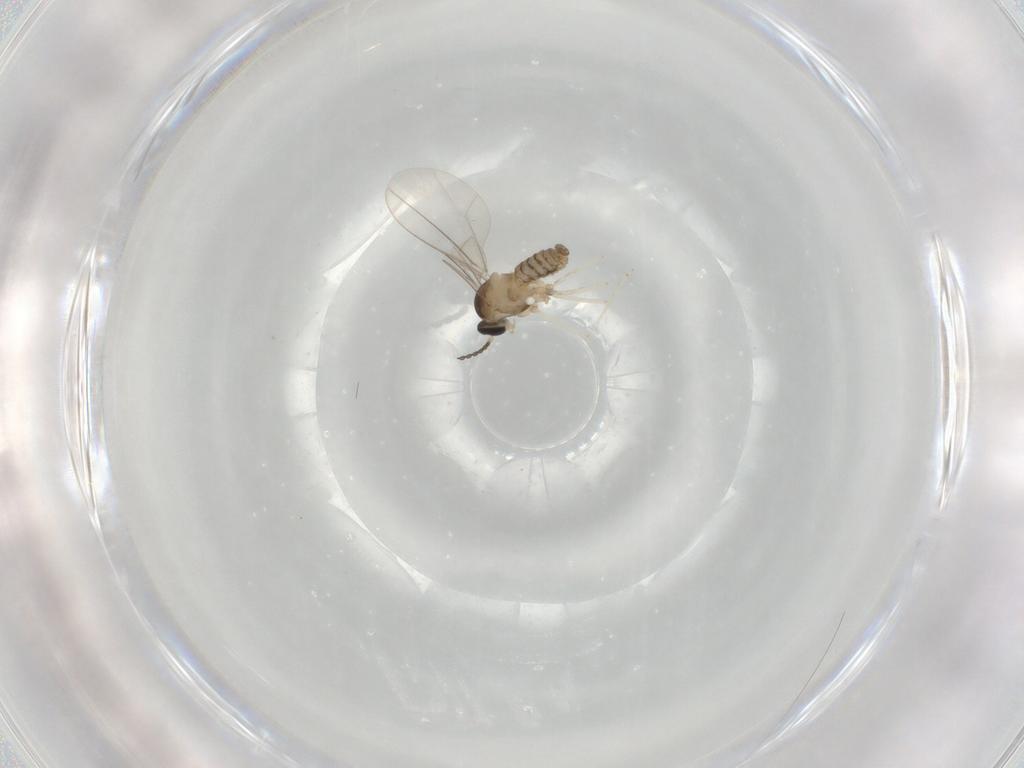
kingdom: Animalia
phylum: Arthropoda
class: Insecta
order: Diptera
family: Cecidomyiidae
